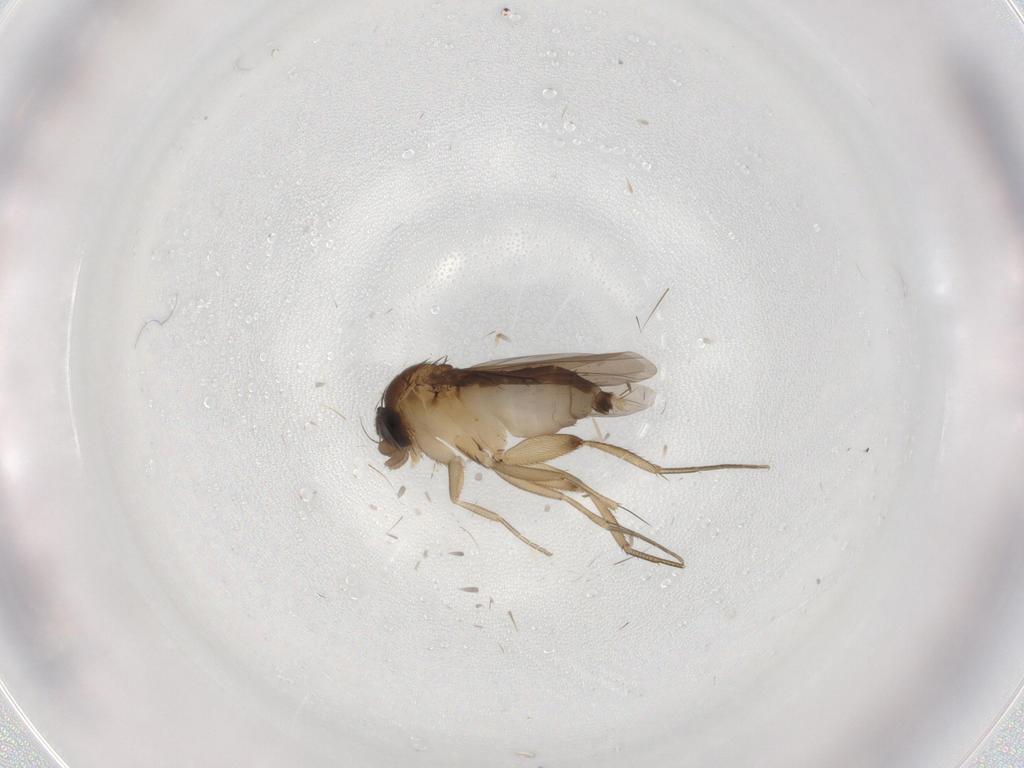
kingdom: Animalia
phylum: Arthropoda
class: Insecta
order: Diptera
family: Phoridae
